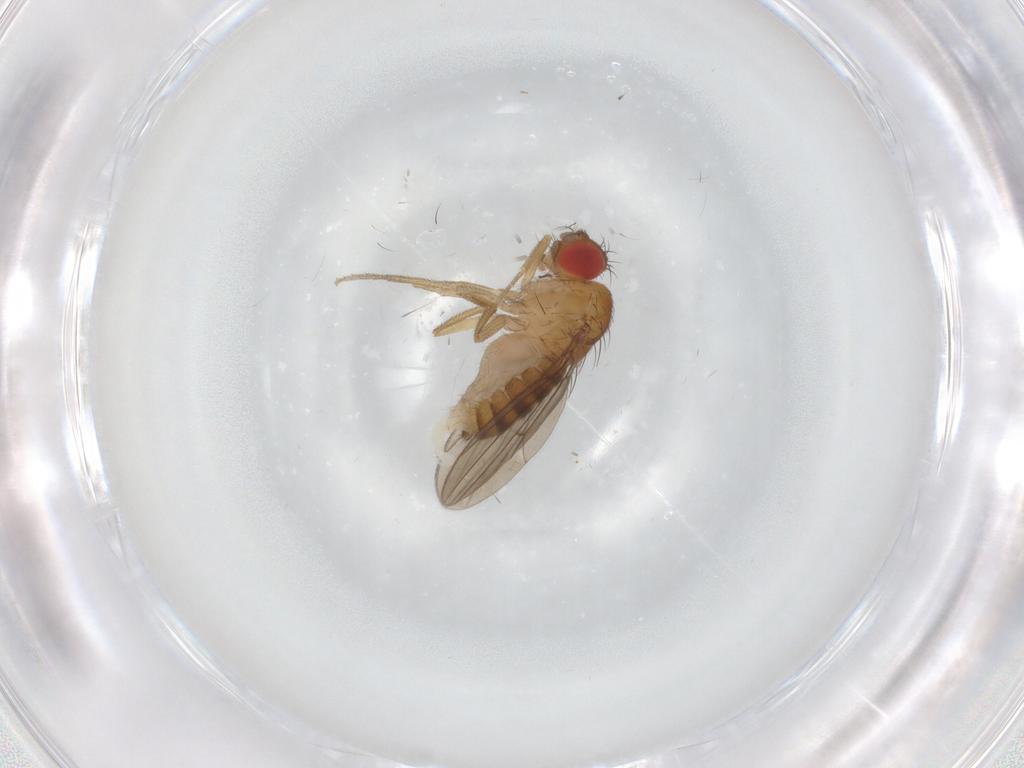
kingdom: Animalia
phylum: Arthropoda
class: Insecta
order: Diptera
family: Drosophilidae
